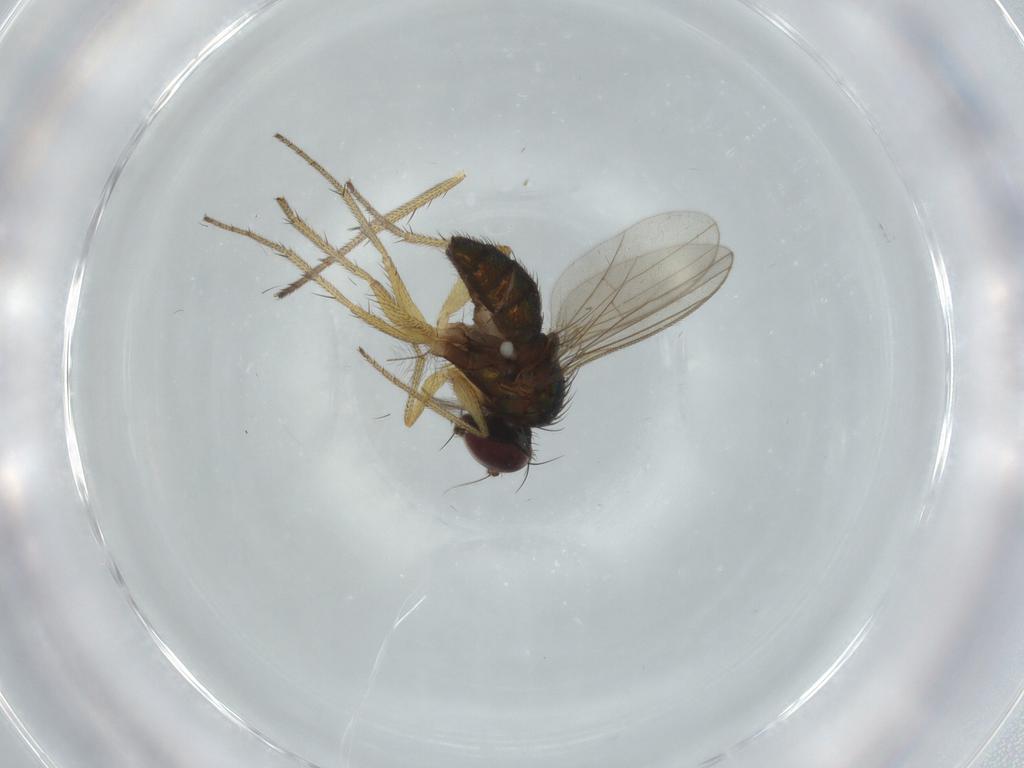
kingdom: Animalia
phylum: Arthropoda
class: Insecta
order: Diptera
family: Dolichopodidae
